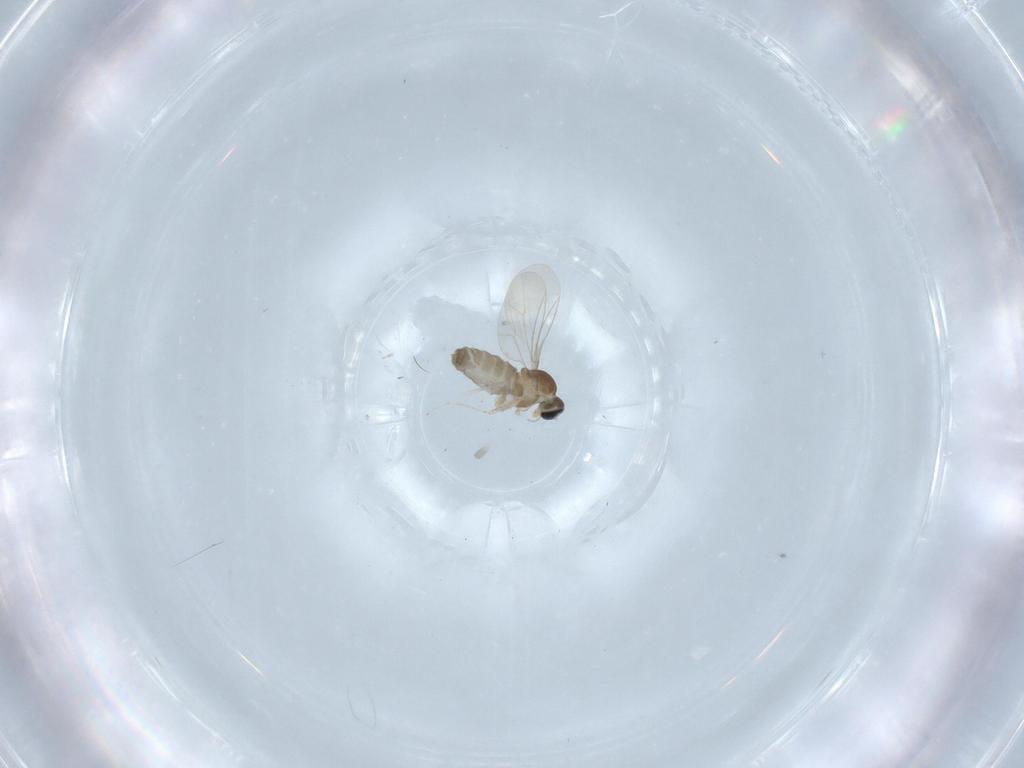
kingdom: Animalia
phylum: Arthropoda
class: Insecta
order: Diptera
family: Cecidomyiidae
